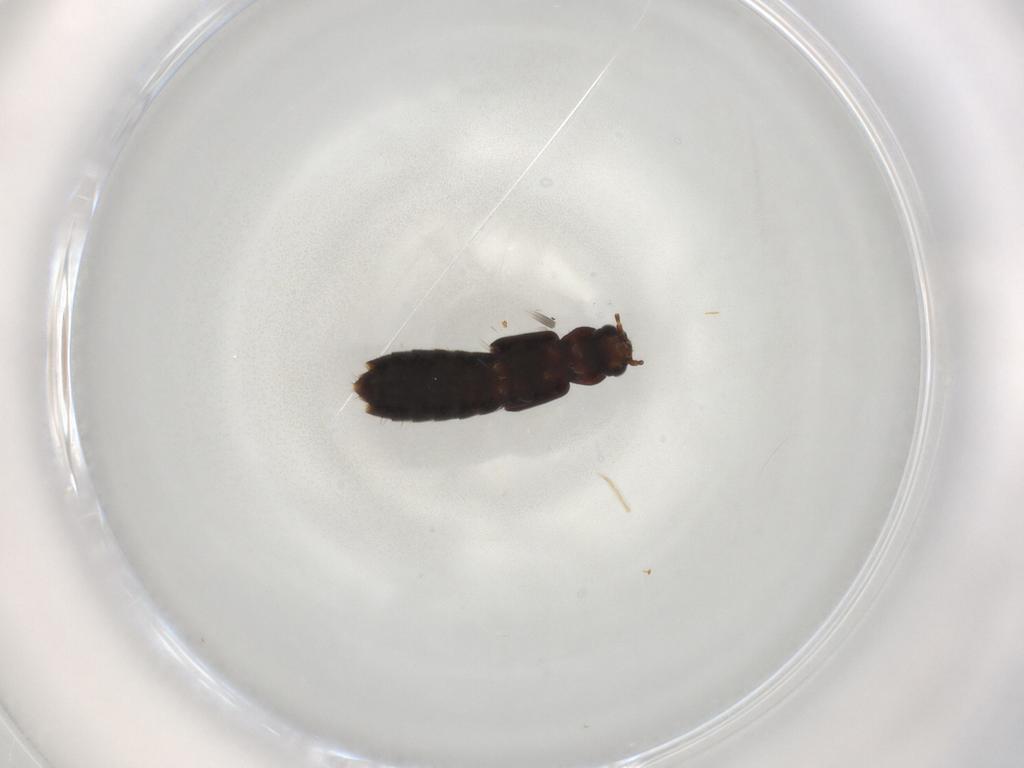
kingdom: Animalia
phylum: Arthropoda
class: Insecta
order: Coleoptera
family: Staphylinidae
